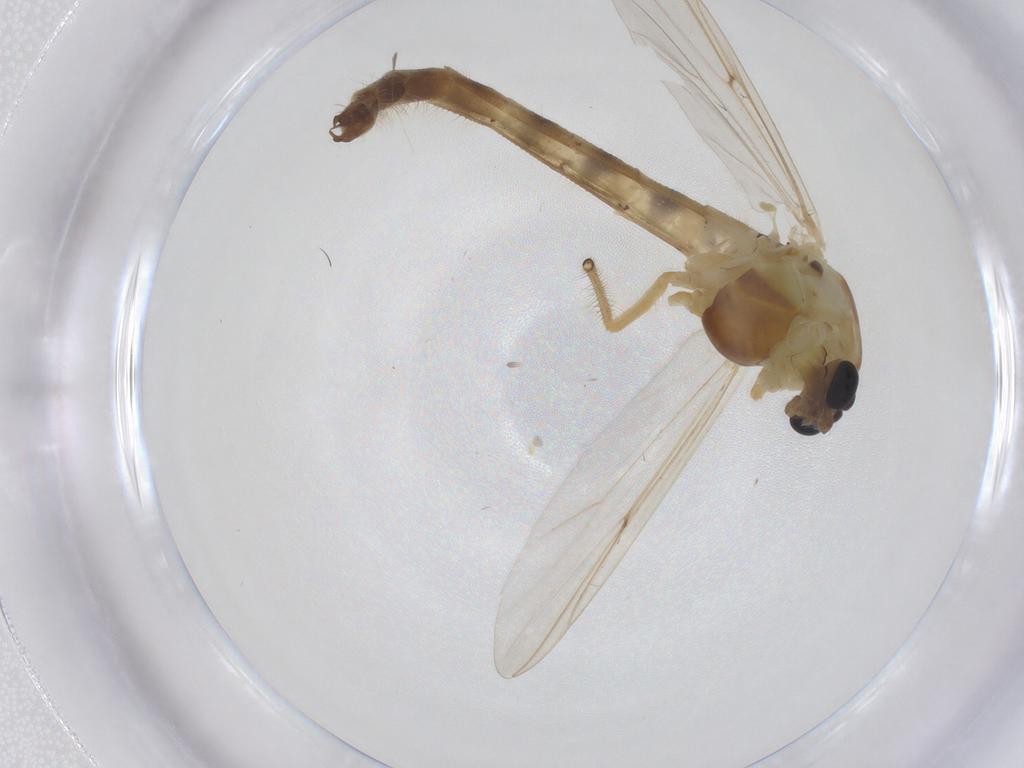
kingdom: Animalia
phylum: Arthropoda
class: Insecta
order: Diptera
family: Chironomidae
